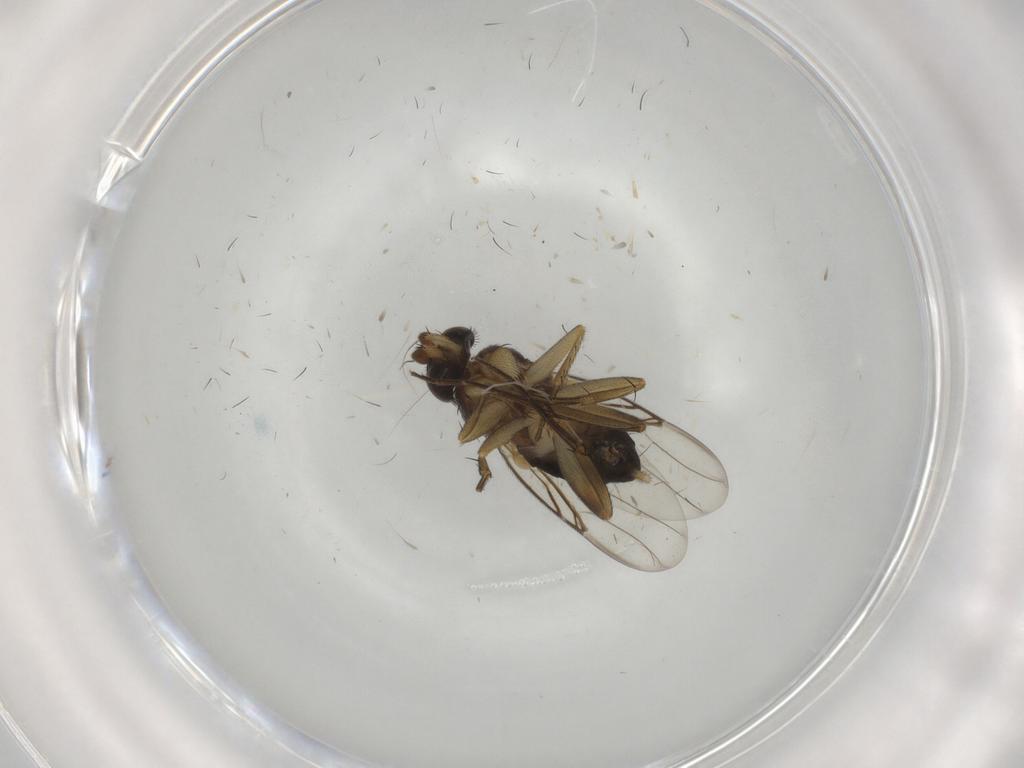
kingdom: Animalia
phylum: Arthropoda
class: Insecta
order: Diptera
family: Phoridae
